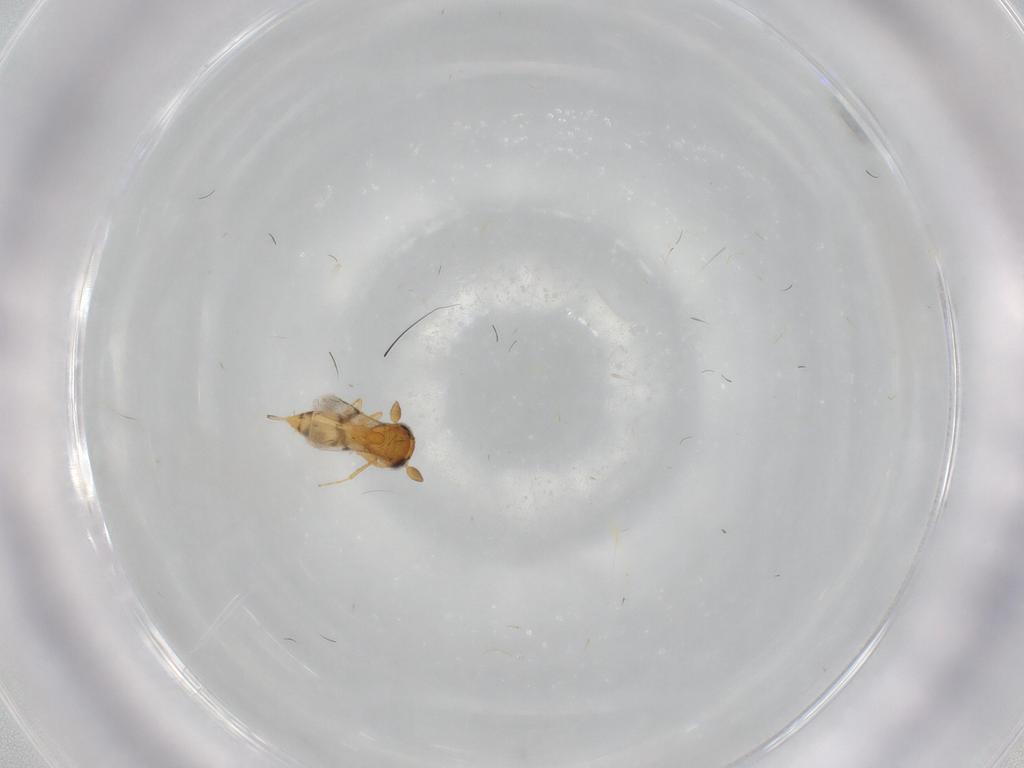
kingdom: Animalia
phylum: Arthropoda
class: Insecta
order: Hymenoptera
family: Scelionidae
